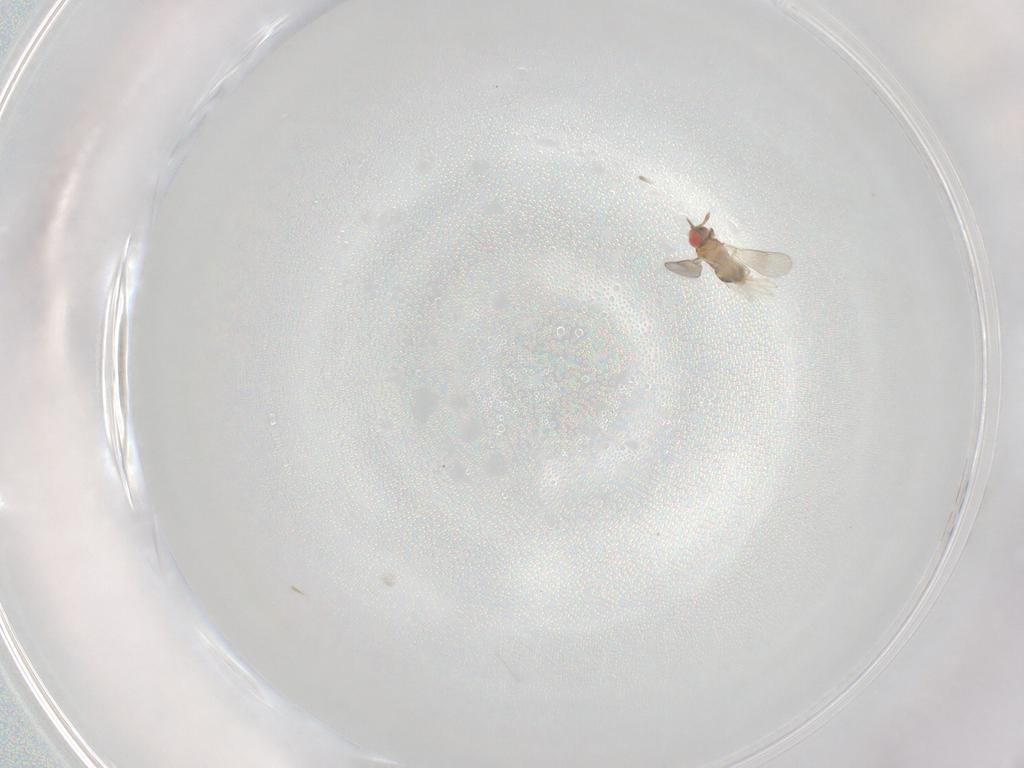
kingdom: Animalia
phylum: Arthropoda
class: Insecta
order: Hymenoptera
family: Aphelinidae
